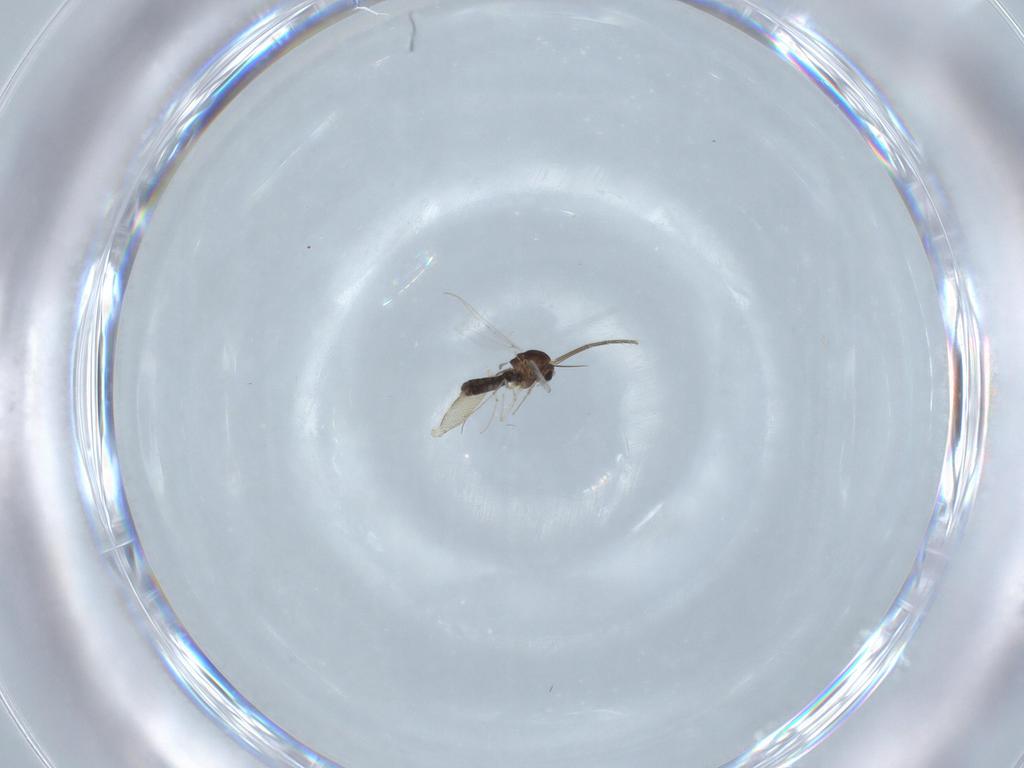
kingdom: Animalia
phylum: Arthropoda
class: Insecta
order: Diptera
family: Chironomidae
